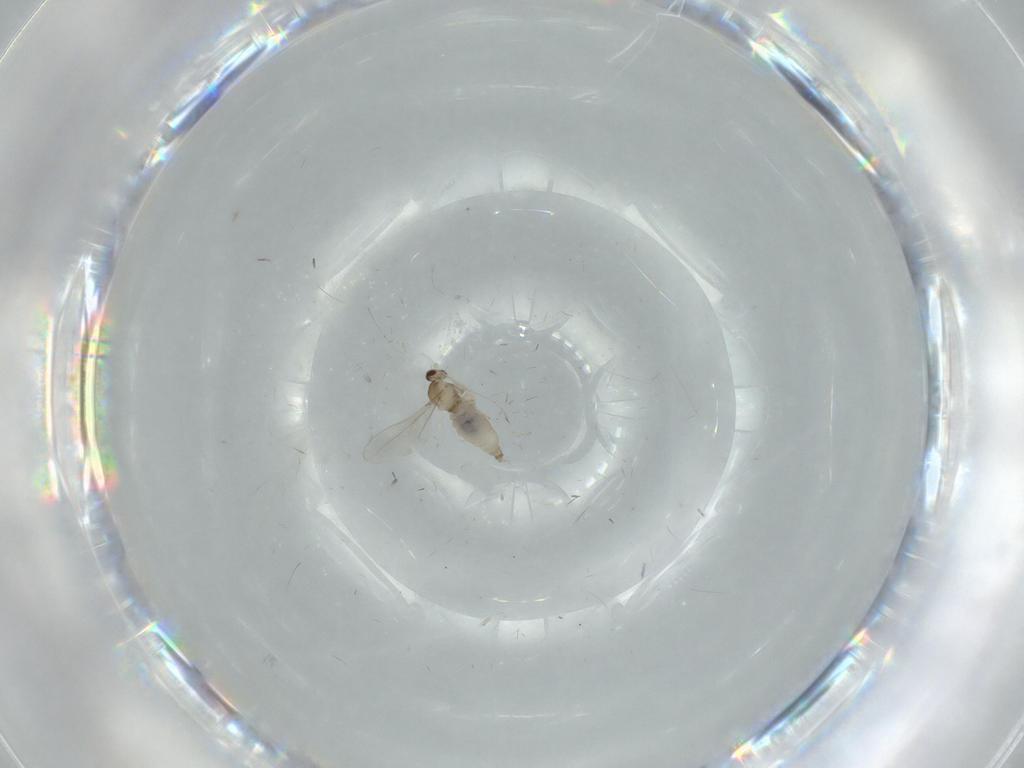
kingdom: Animalia
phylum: Arthropoda
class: Insecta
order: Diptera
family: Cecidomyiidae
